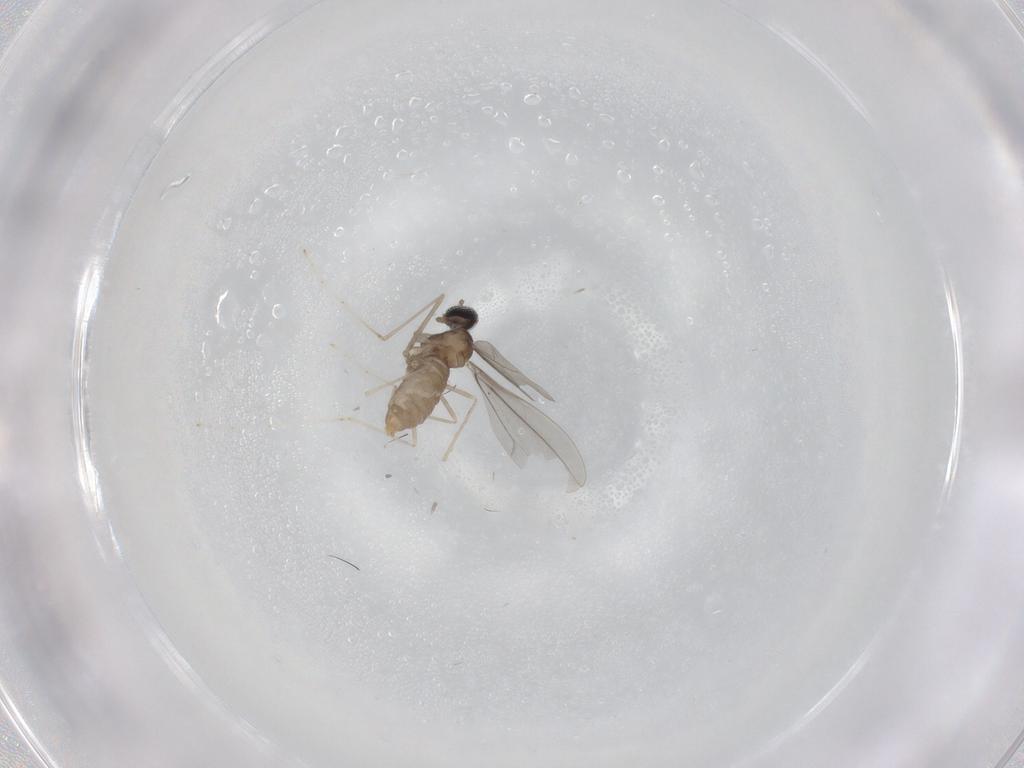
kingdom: Animalia
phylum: Arthropoda
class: Insecta
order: Diptera
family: Cecidomyiidae
